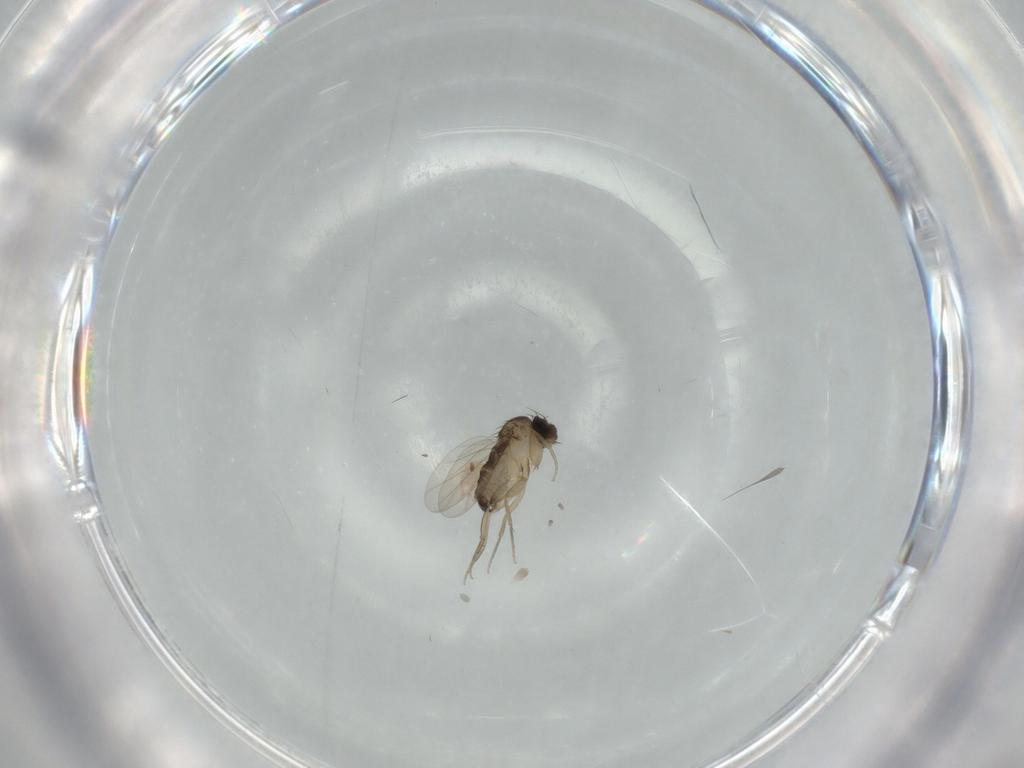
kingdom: Animalia
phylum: Arthropoda
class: Insecta
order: Diptera
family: Phoridae
